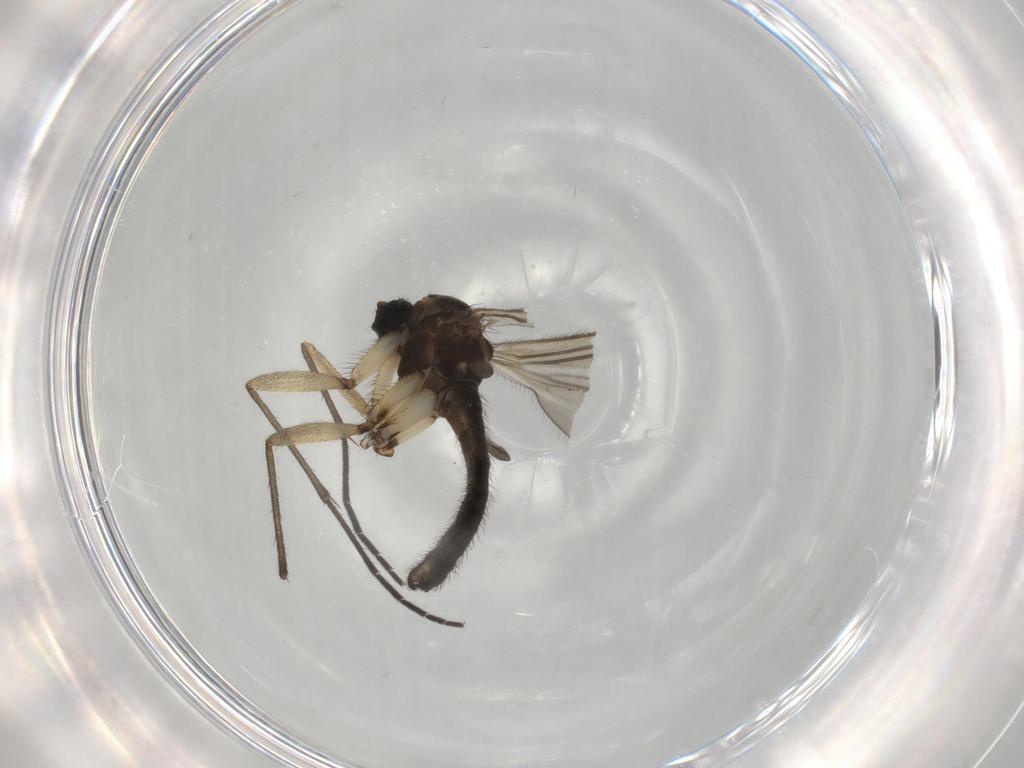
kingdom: Animalia
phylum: Arthropoda
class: Insecta
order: Diptera
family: Sciaridae
